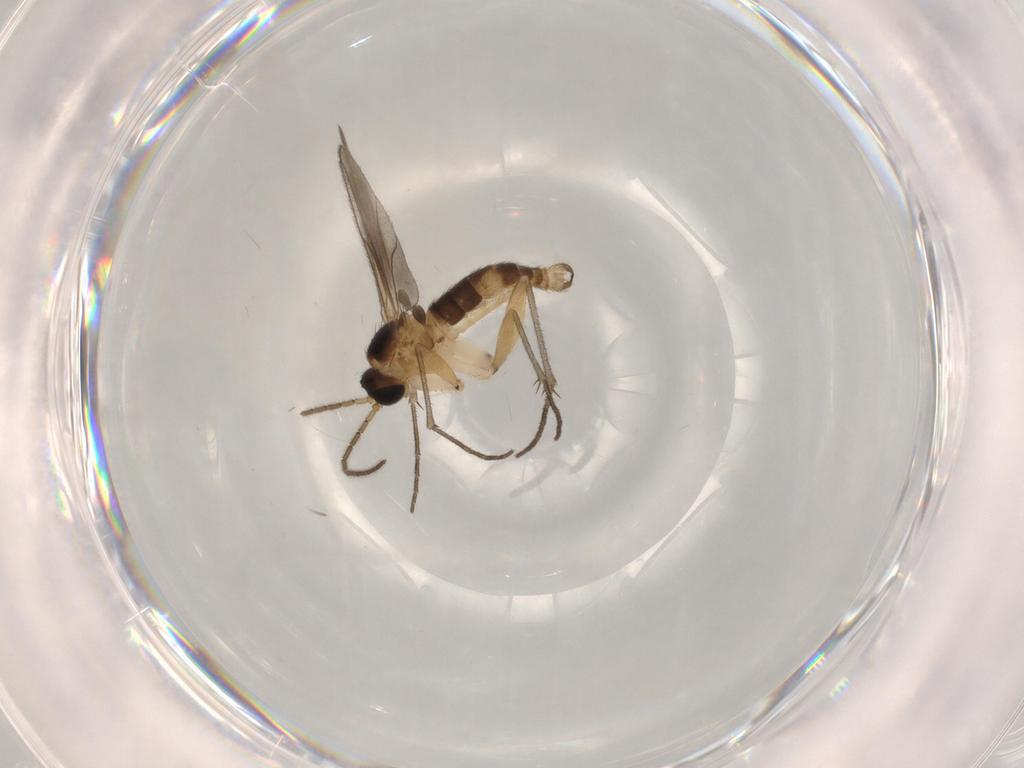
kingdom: Animalia
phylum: Arthropoda
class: Insecta
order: Diptera
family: Sciaridae
